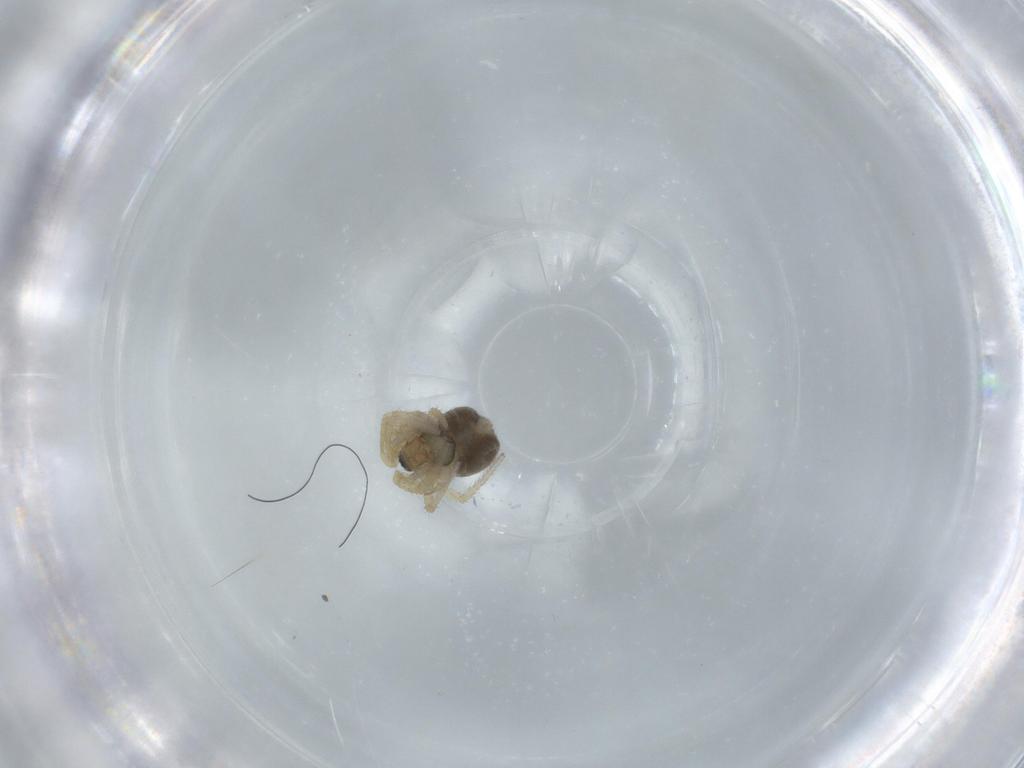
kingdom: Animalia
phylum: Arthropoda
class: Arachnida
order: Araneae
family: Linyphiidae
